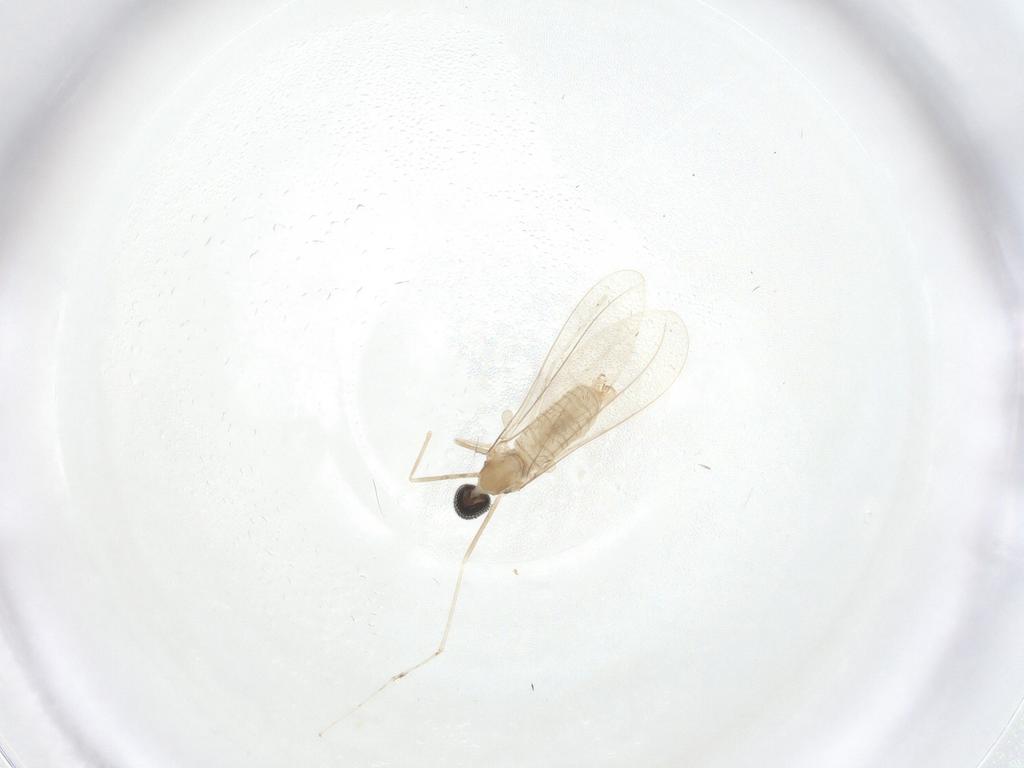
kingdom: Animalia
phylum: Arthropoda
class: Insecta
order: Diptera
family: Cecidomyiidae
